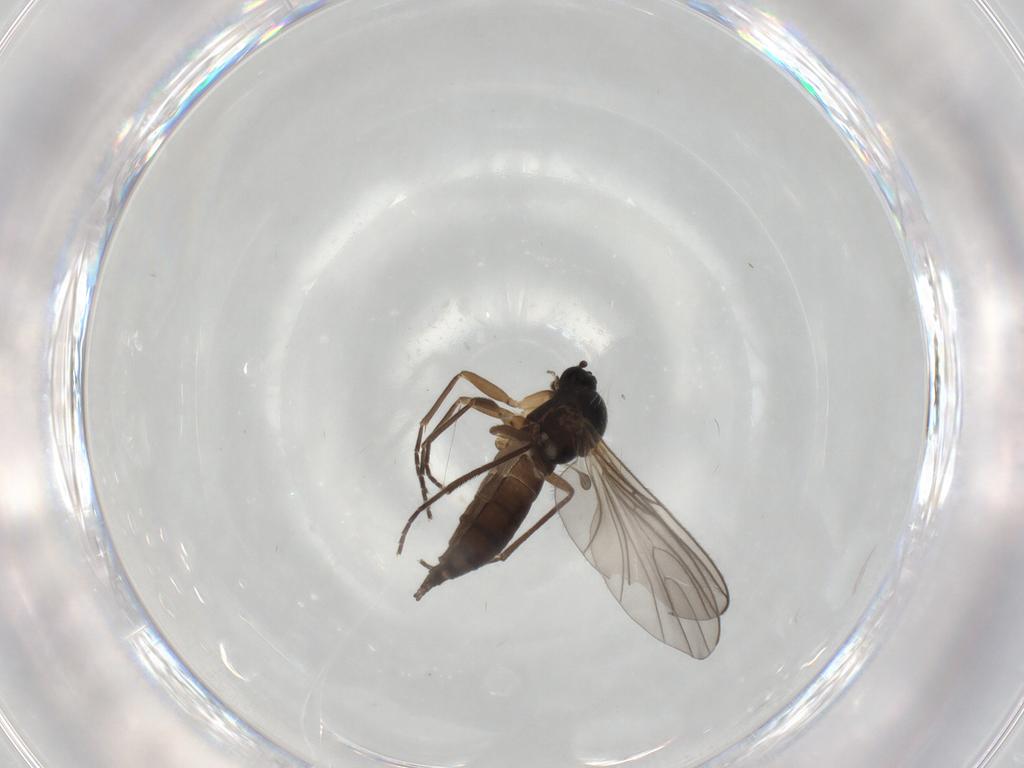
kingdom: Animalia
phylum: Arthropoda
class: Insecta
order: Diptera
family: Sciaridae
